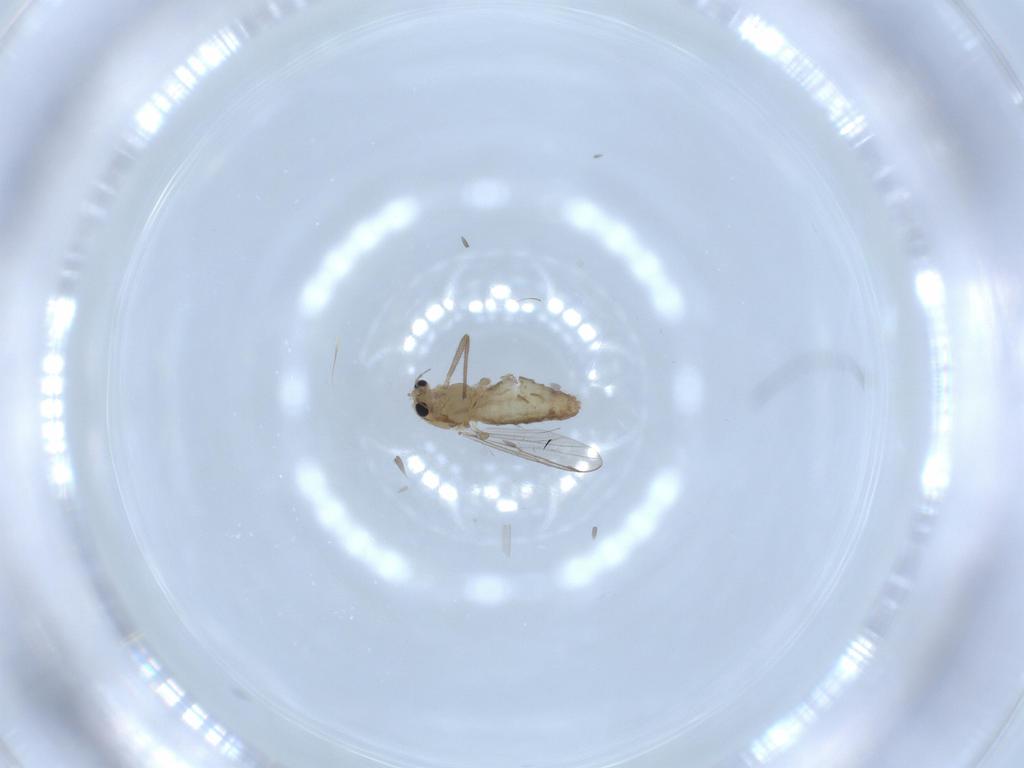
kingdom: Animalia
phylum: Arthropoda
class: Insecta
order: Diptera
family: Chironomidae
